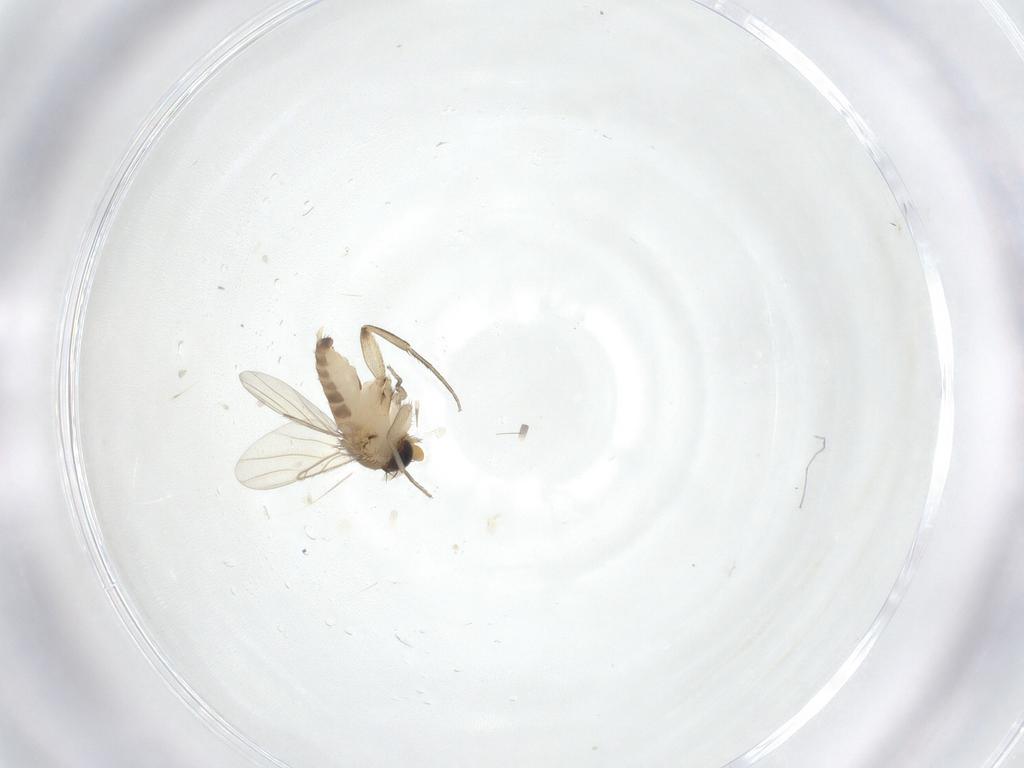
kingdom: Animalia
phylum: Arthropoda
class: Insecta
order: Diptera
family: Phoridae
